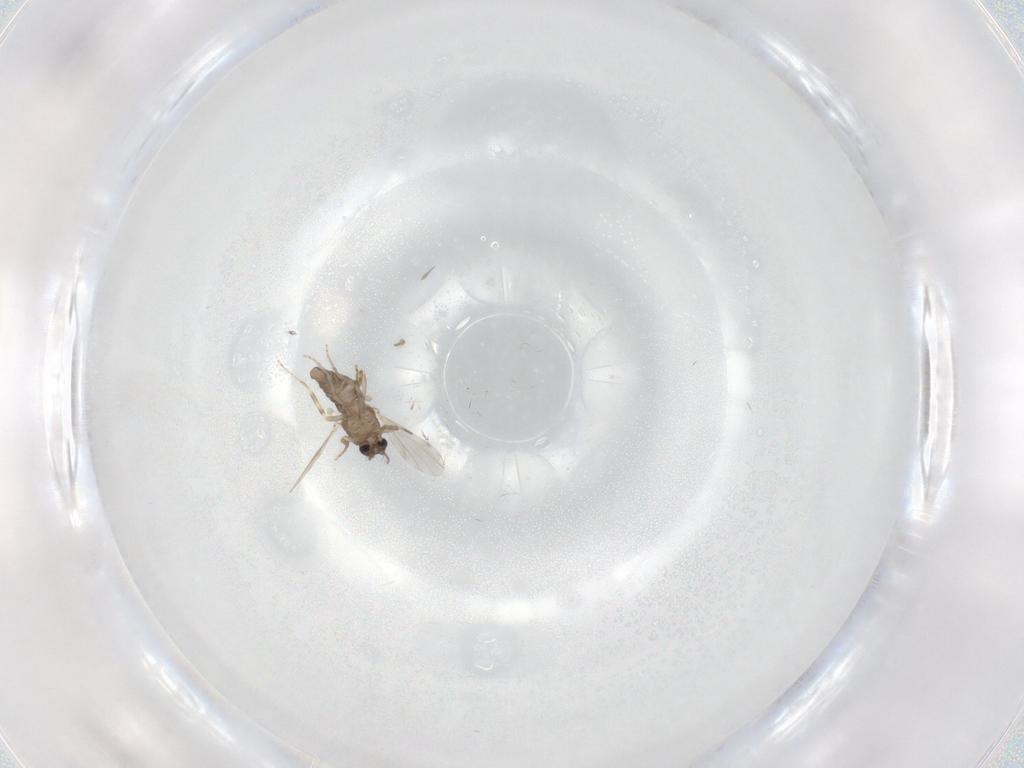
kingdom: Animalia
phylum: Arthropoda
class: Insecta
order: Diptera
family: Ceratopogonidae
